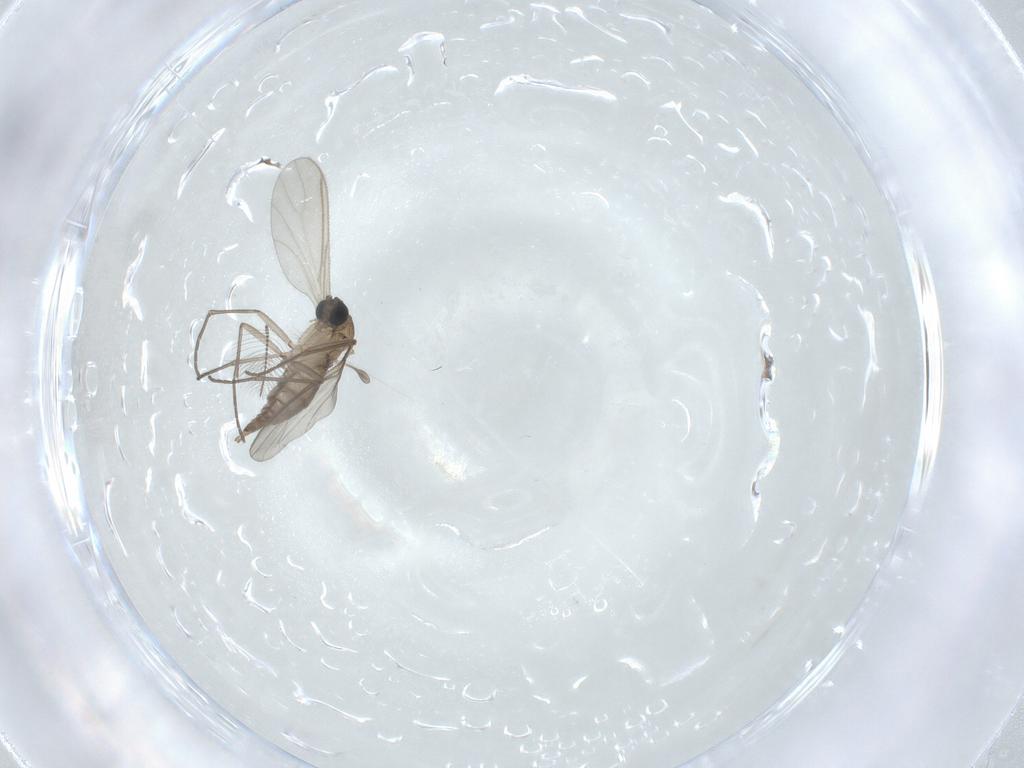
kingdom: Animalia
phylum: Arthropoda
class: Insecta
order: Diptera
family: Sciaridae
